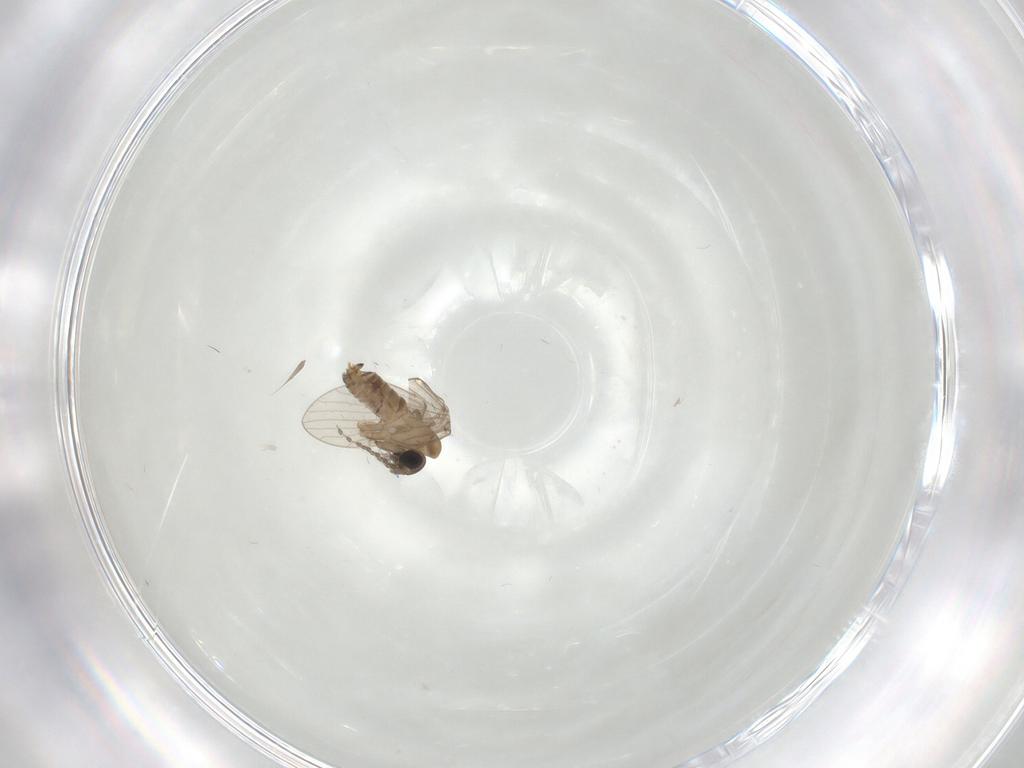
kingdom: Animalia
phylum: Arthropoda
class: Insecta
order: Diptera
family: Psychodidae
